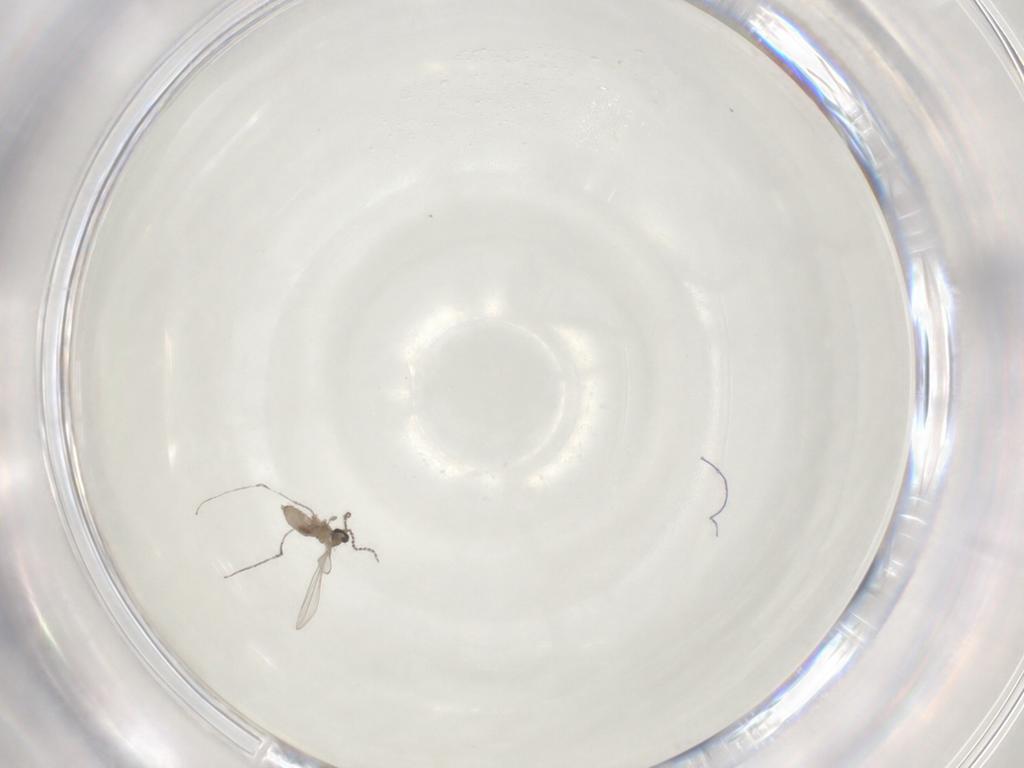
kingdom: Animalia
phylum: Arthropoda
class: Insecta
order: Diptera
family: Cecidomyiidae
